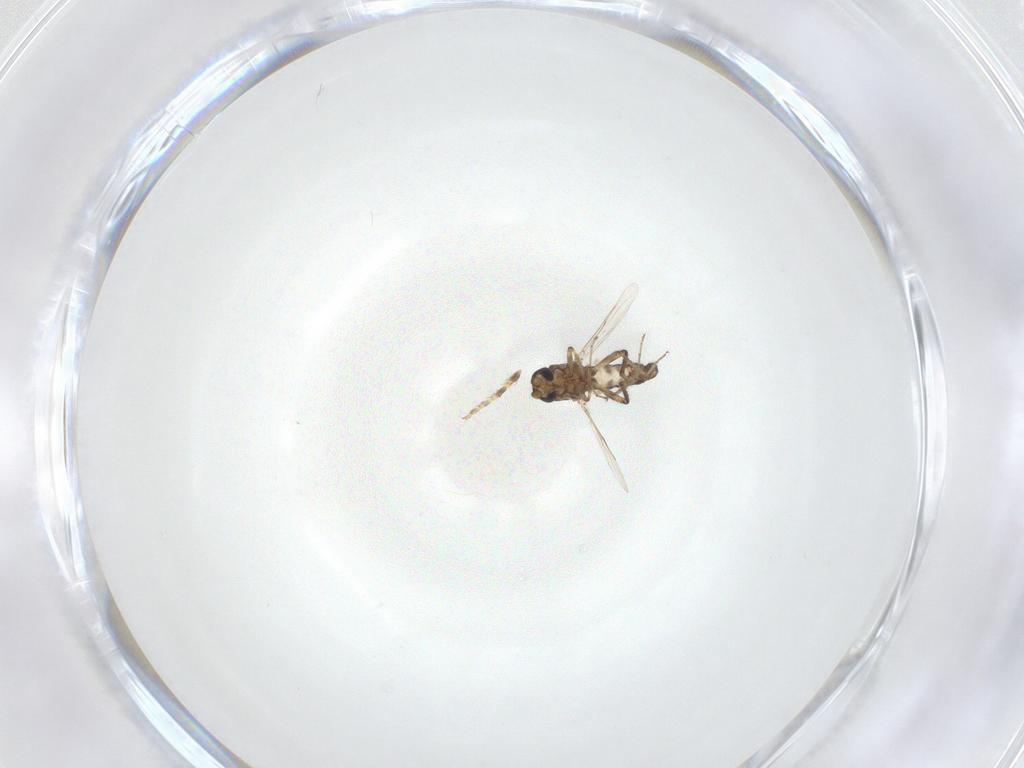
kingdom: Animalia
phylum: Arthropoda
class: Insecta
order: Diptera
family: Ceratopogonidae
